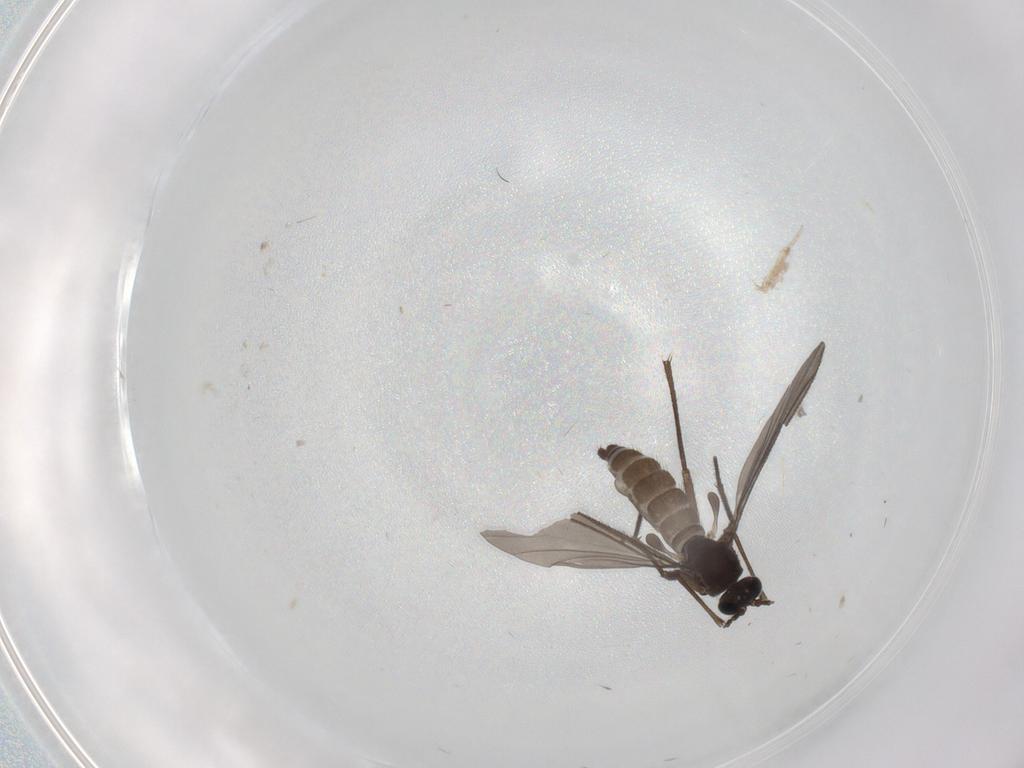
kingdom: Animalia
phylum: Arthropoda
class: Insecta
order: Diptera
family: Sciaridae
